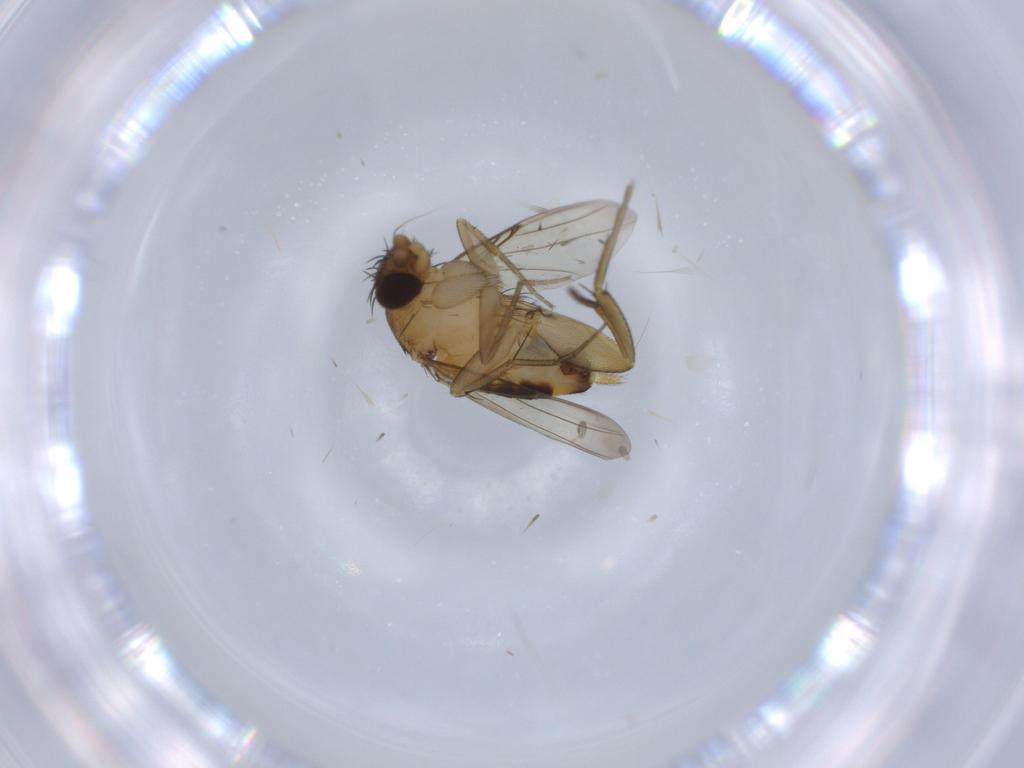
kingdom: Animalia
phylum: Arthropoda
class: Insecta
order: Diptera
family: Phoridae
